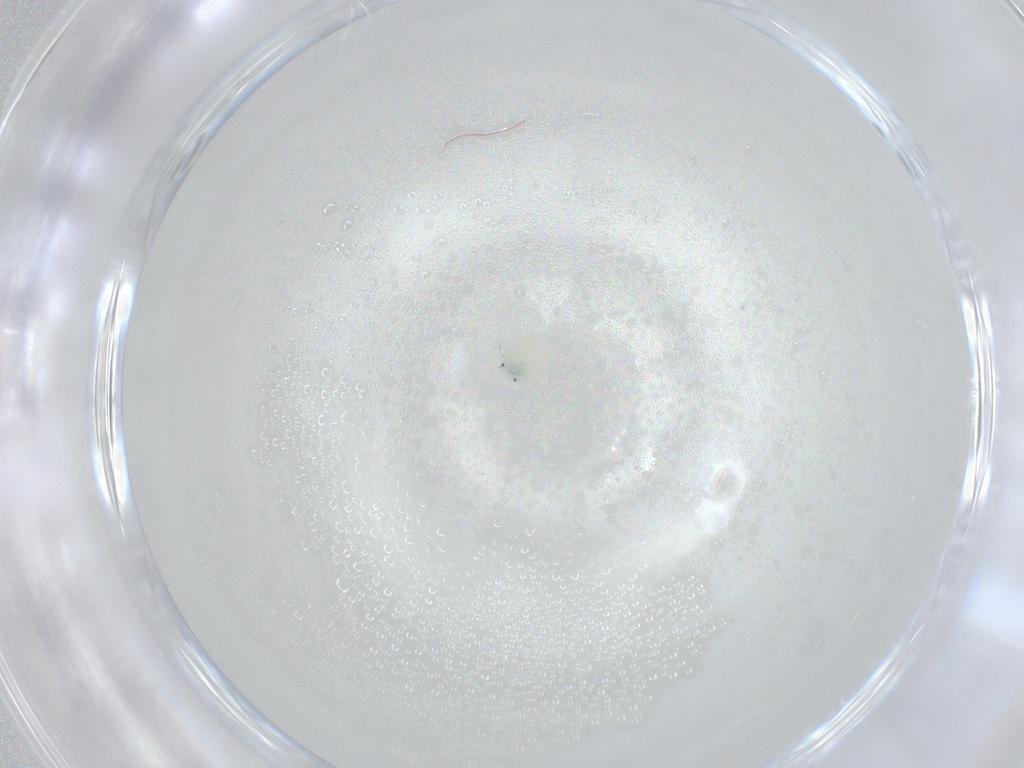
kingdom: Animalia
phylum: Arthropoda
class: Arachnida
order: Trombidiformes
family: Arrenuridae
